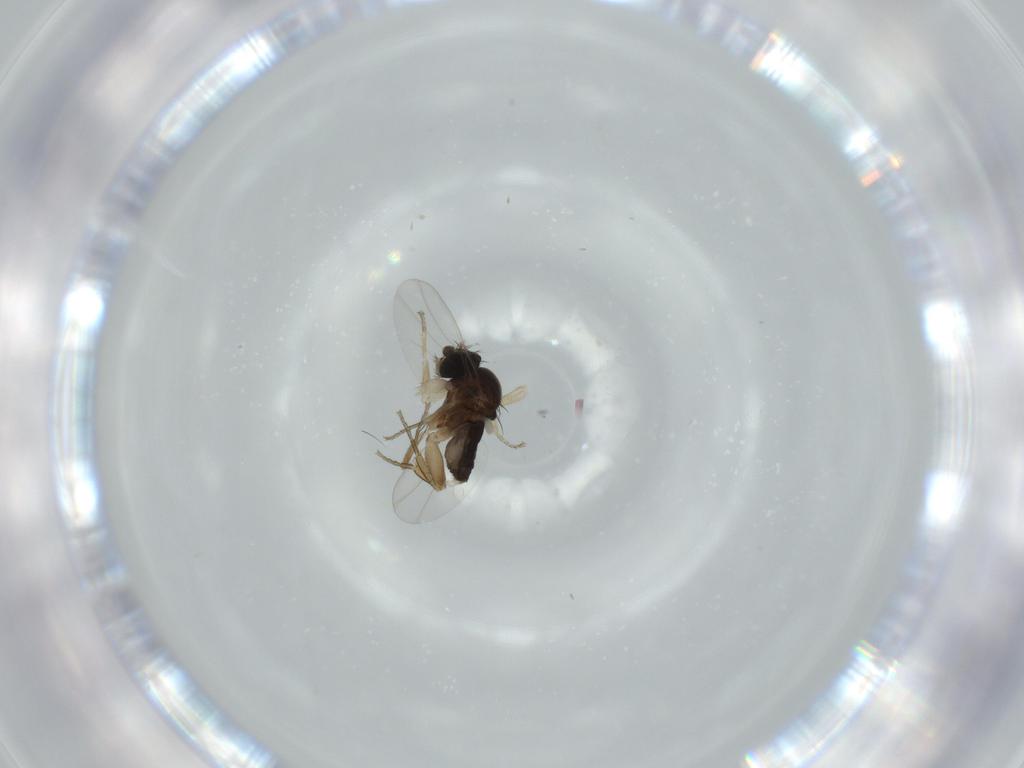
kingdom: Animalia
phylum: Arthropoda
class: Insecta
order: Diptera
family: Phoridae
